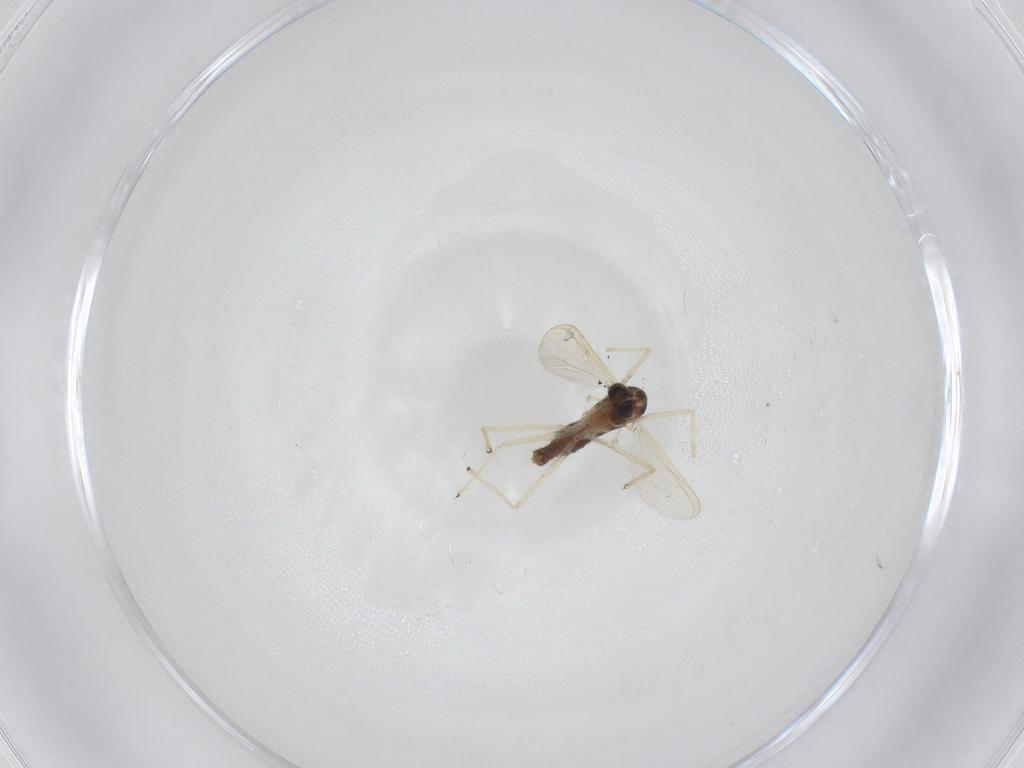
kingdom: Animalia
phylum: Arthropoda
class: Insecta
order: Diptera
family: Chironomidae
